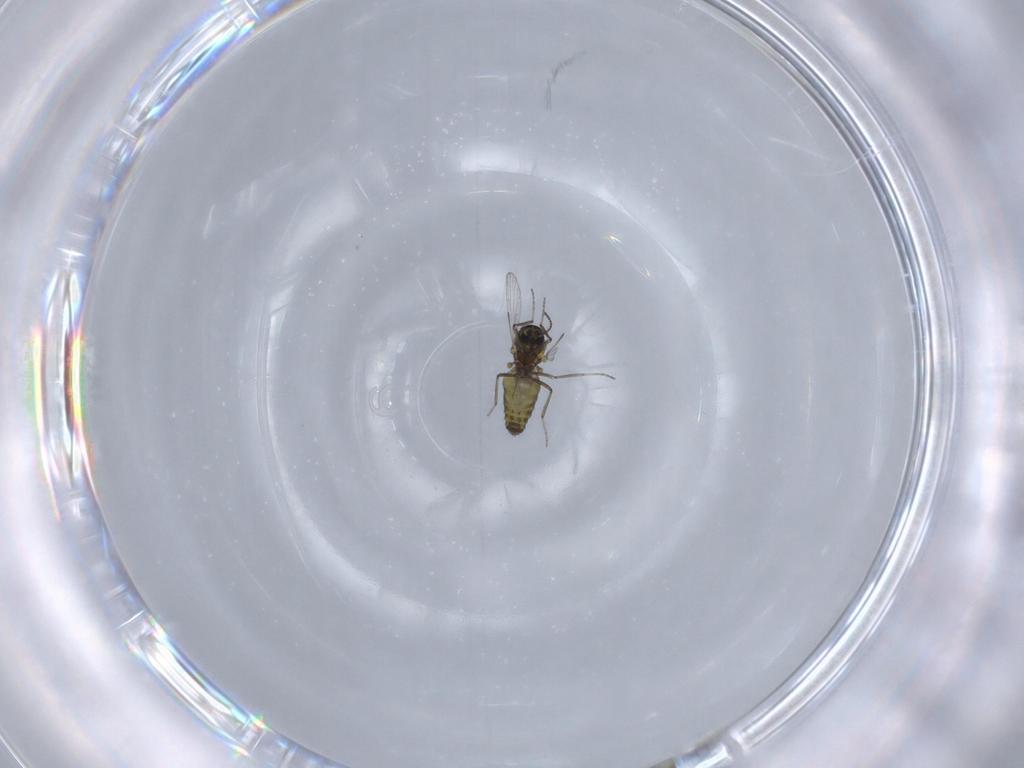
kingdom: Animalia
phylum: Arthropoda
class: Insecta
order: Diptera
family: Ceratopogonidae
